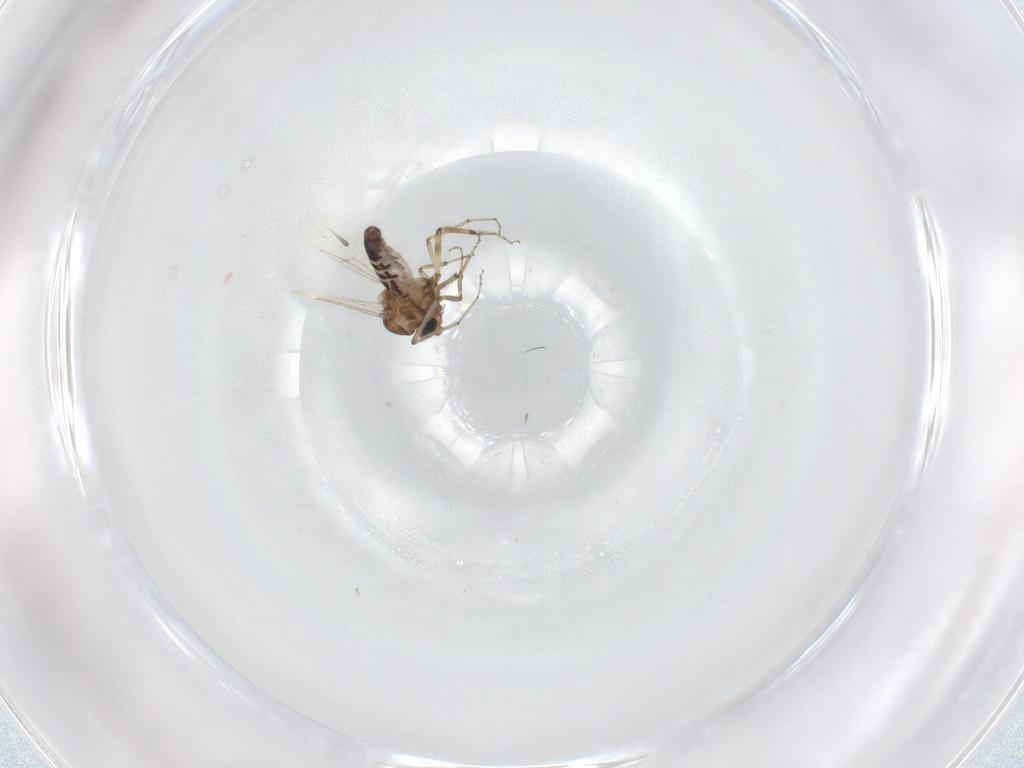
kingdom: Animalia
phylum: Arthropoda
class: Insecta
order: Diptera
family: Ceratopogonidae
